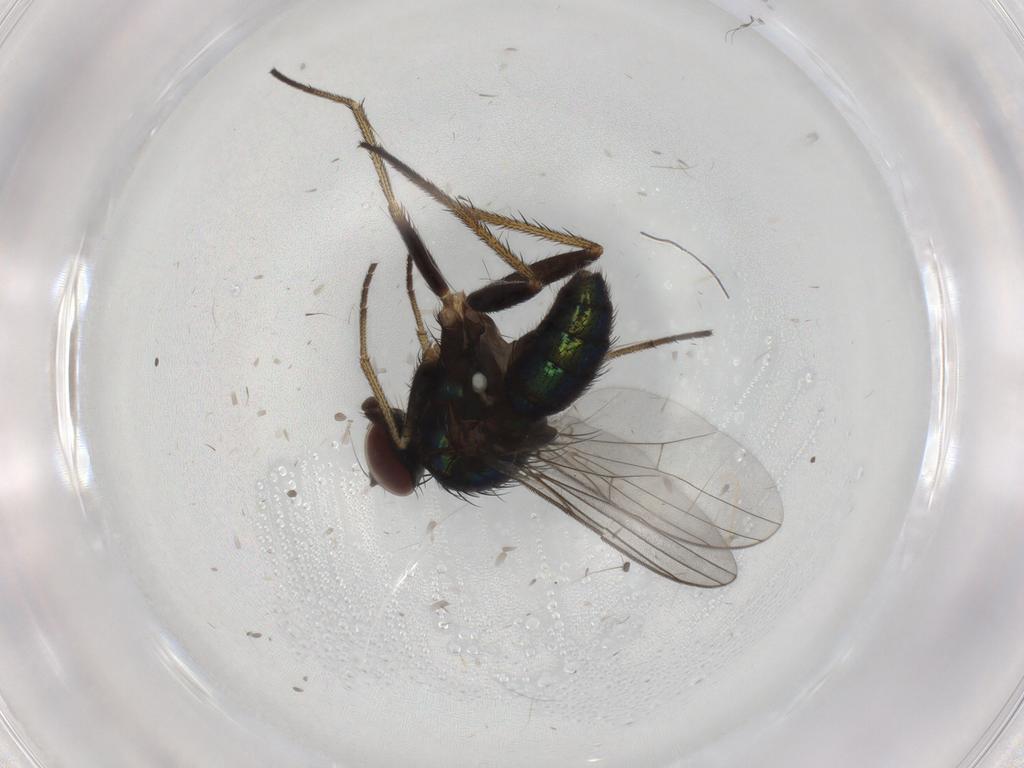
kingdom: Animalia
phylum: Arthropoda
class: Insecta
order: Diptera
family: Dolichopodidae
